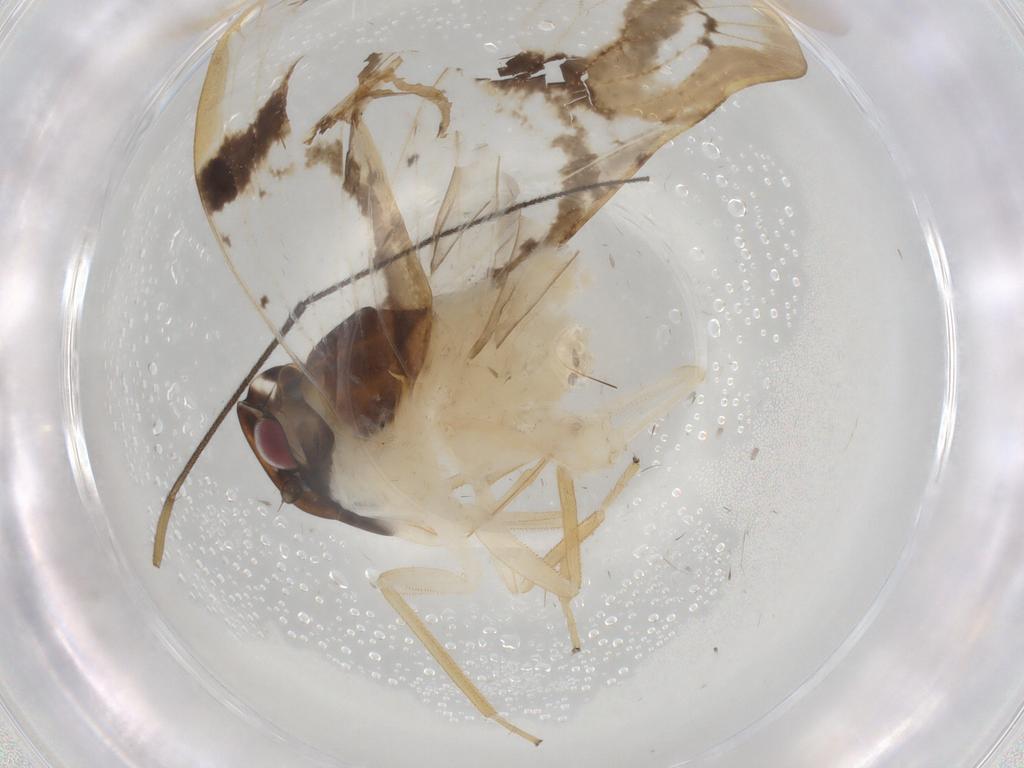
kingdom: Animalia
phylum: Arthropoda
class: Insecta
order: Hemiptera
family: Cixiidae
